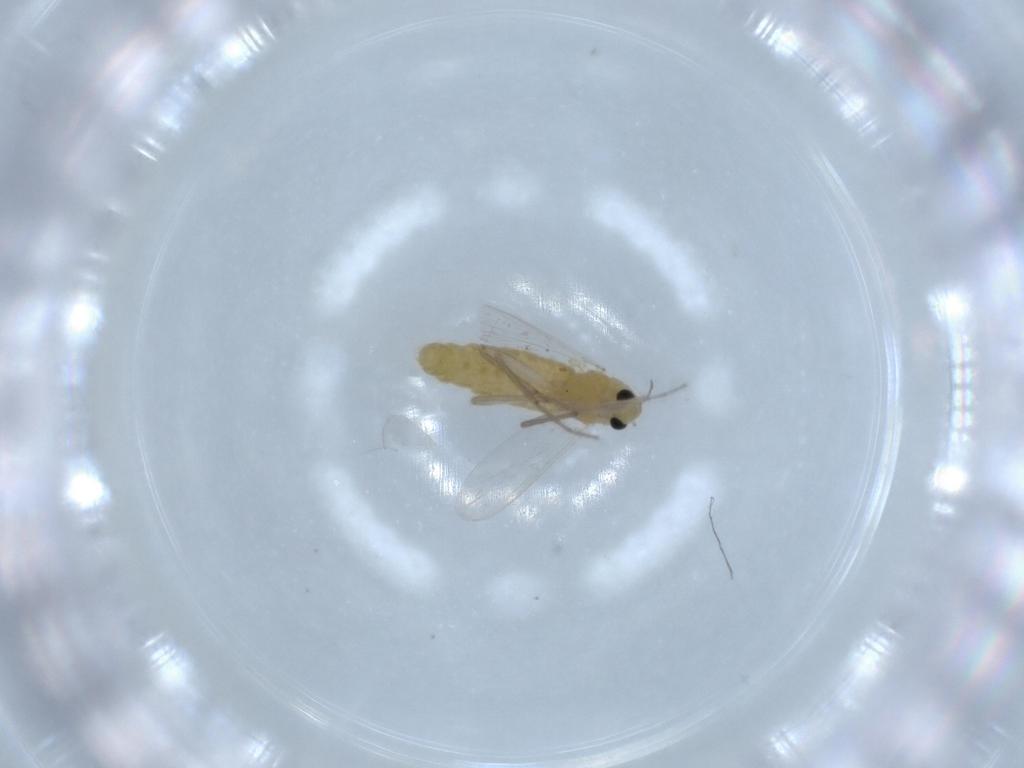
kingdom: Animalia
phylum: Arthropoda
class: Insecta
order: Diptera
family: Chironomidae
